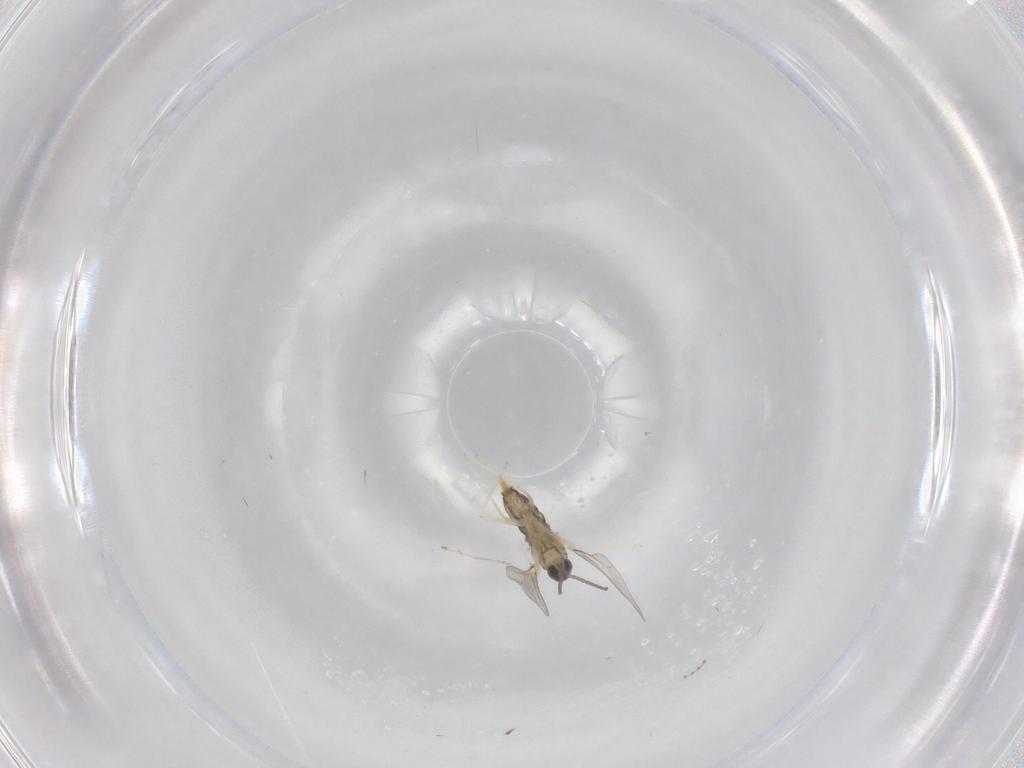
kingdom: Animalia
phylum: Arthropoda
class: Insecta
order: Diptera
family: Cecidomyiidae
